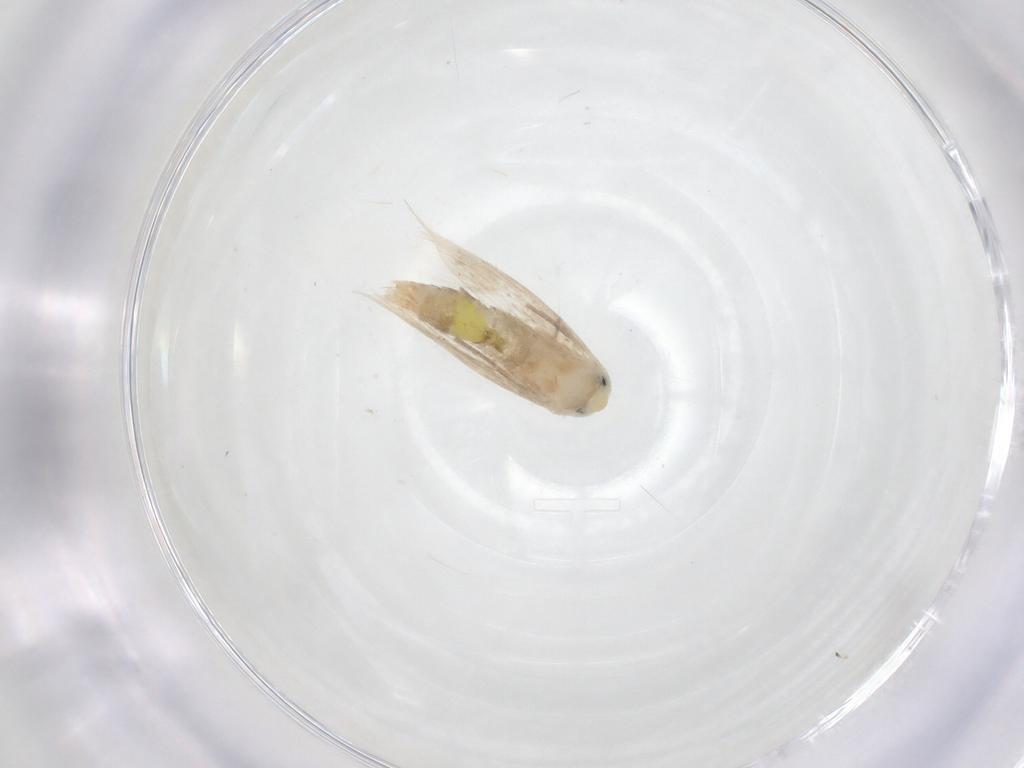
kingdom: Animalia
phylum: Arthropoda
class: Insecta
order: Lepidoptera
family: Lyonetiidae
